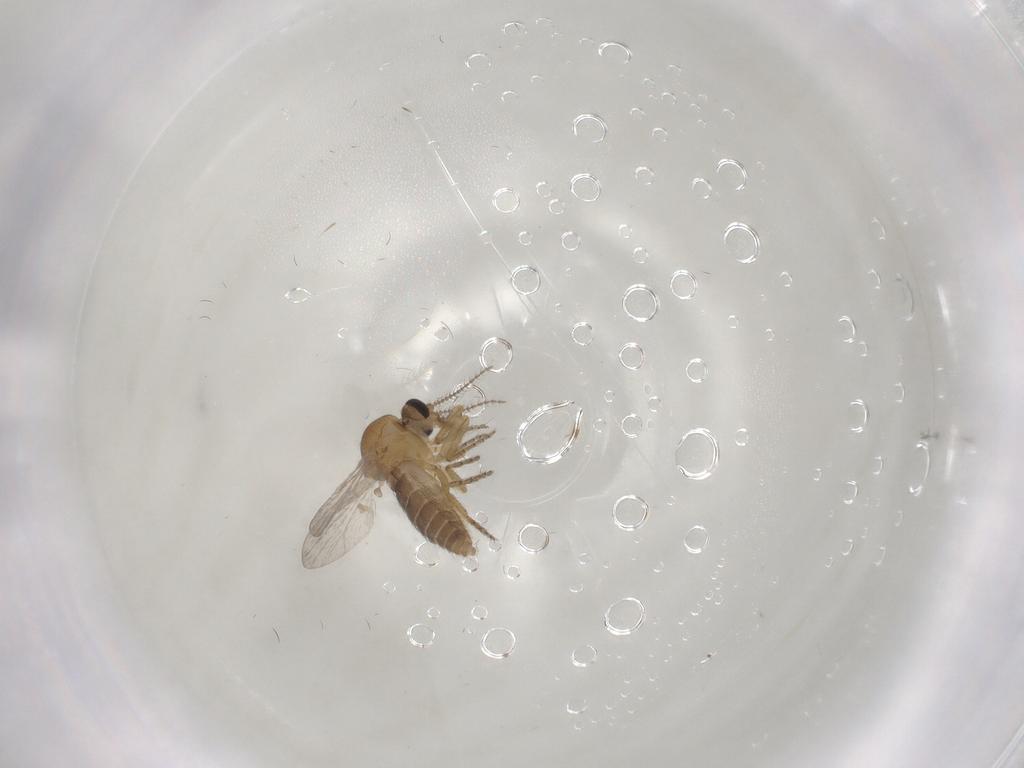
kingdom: Animalia
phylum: Arthropoda
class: Insecta
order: Diptera
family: Ceratopogonidae
